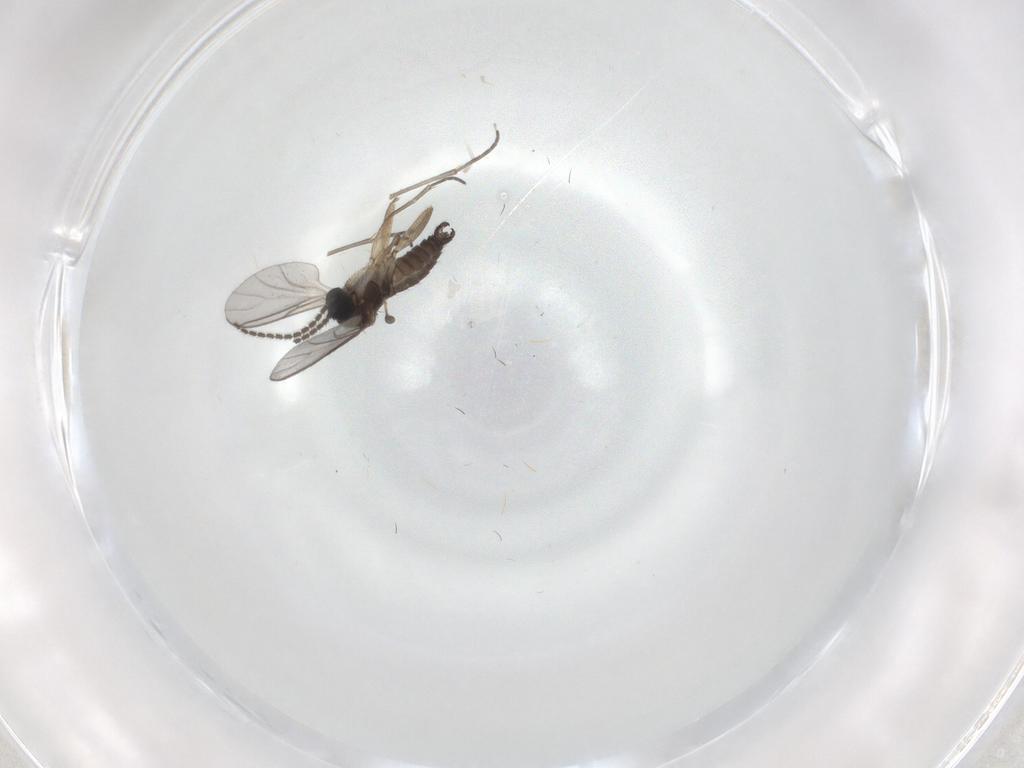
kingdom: Animalia
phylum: Arthropoda
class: Insecta
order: Diptera
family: Sciaridae
